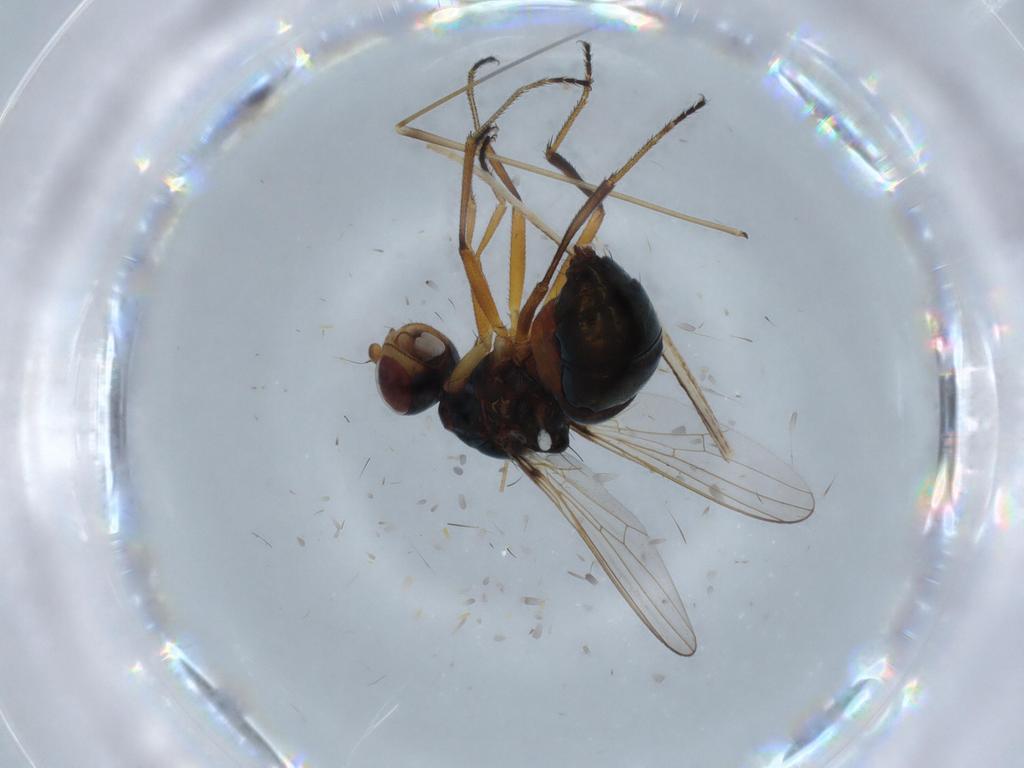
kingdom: Animalia
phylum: Arthropoda
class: Insecta
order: Diptera
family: Sepsidae
